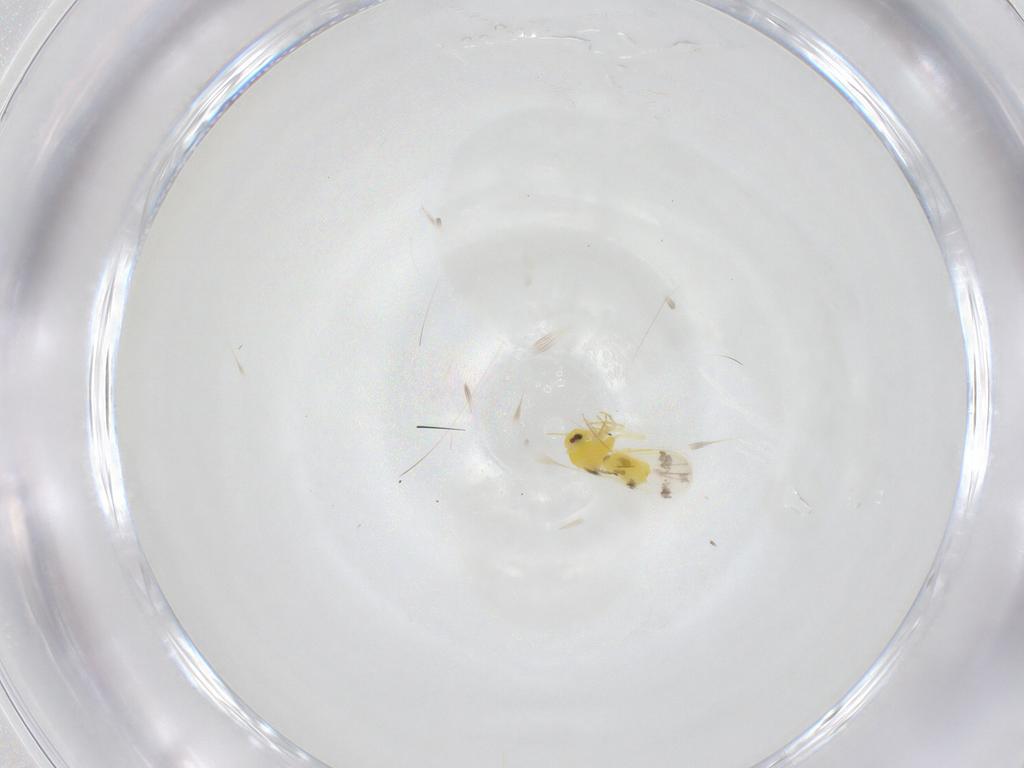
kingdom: Animalia
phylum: Arthropoda
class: Insecta
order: Hemiptera
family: Aleyrodidae
